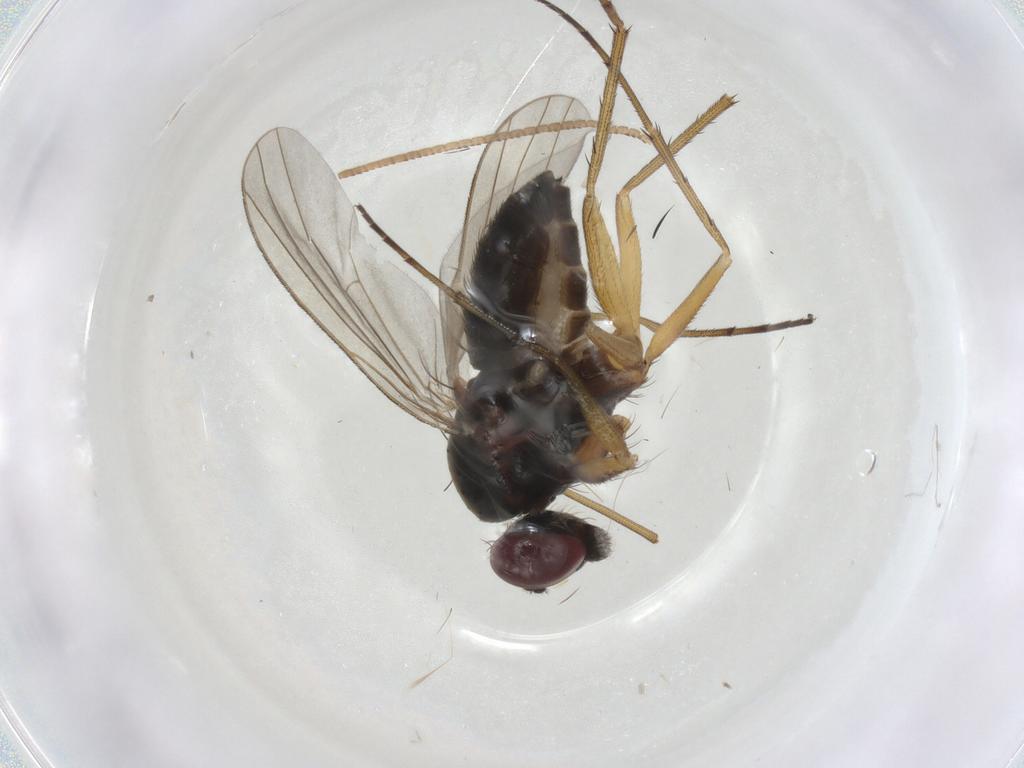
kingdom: Animalia
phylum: Arthropoda
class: Insecta
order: Diptera
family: Dolichopodidae
